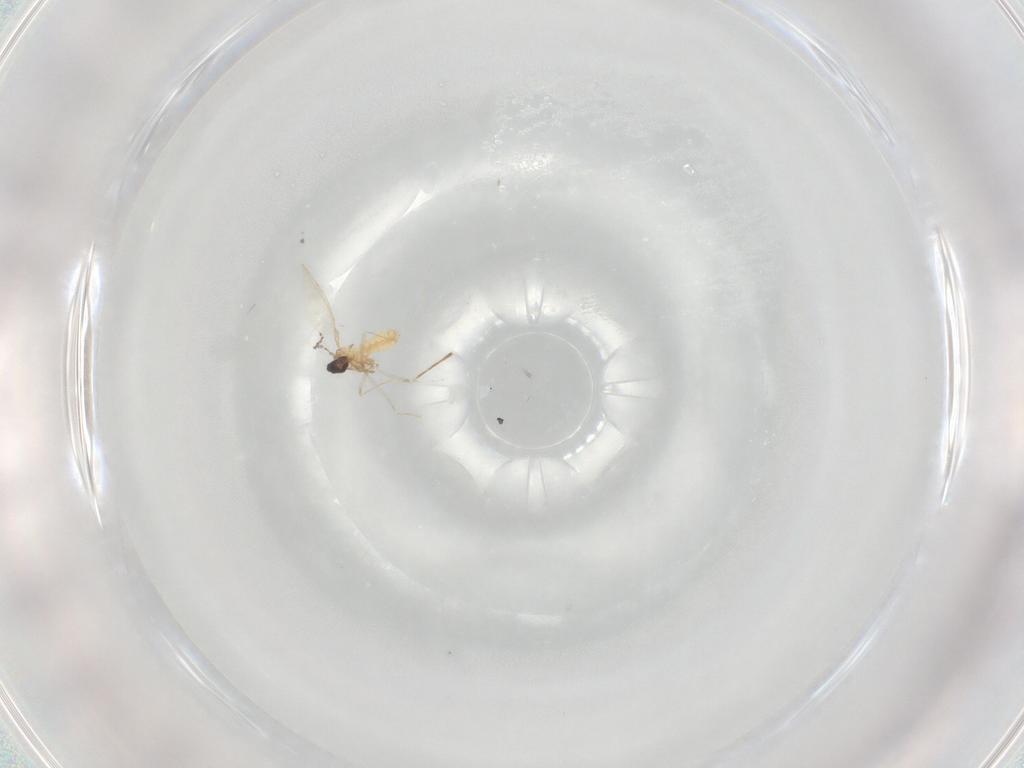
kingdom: Animalia
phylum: Arthropoda
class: Insecta
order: Diptera
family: Cecidomyiidae
